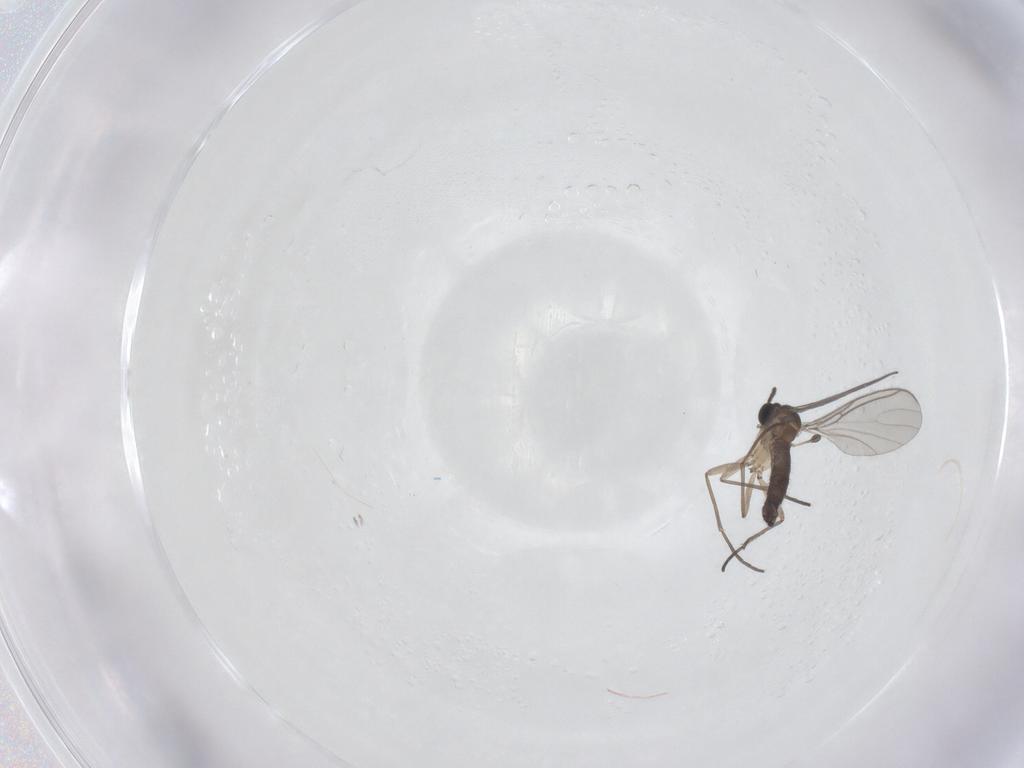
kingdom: Animalia
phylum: Arthropoda
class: Insecta
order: Diptera
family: Sciaridae
